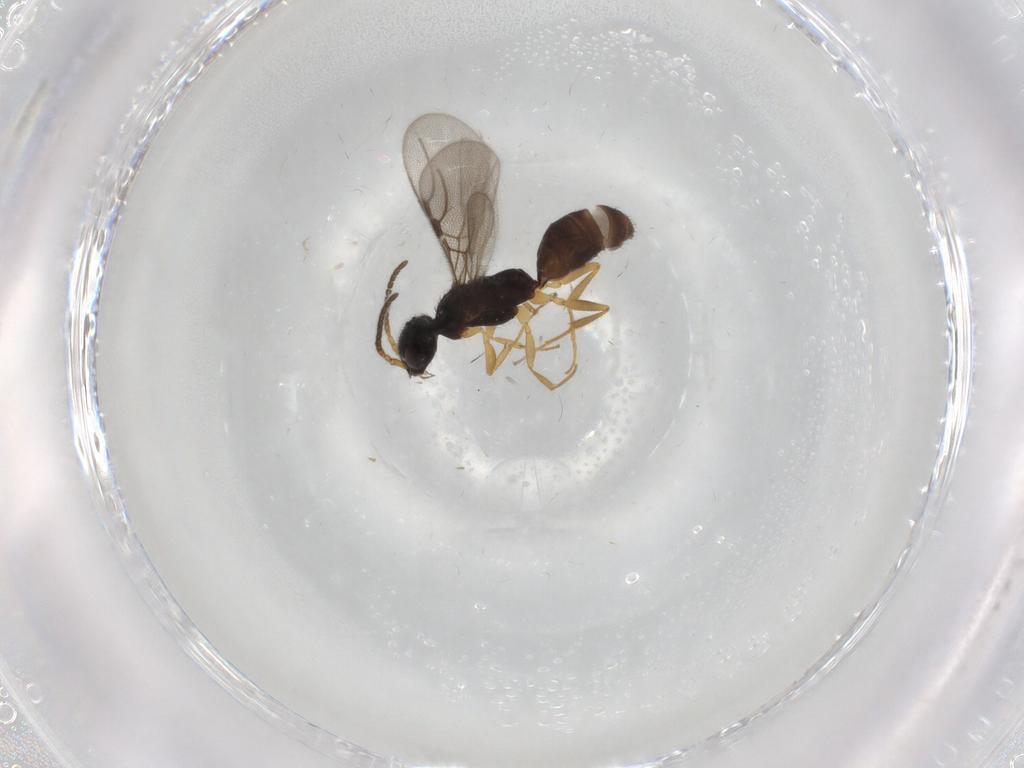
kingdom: Animalia
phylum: Arthropoda
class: Insecta
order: Hymenoptera
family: Bethylidae
